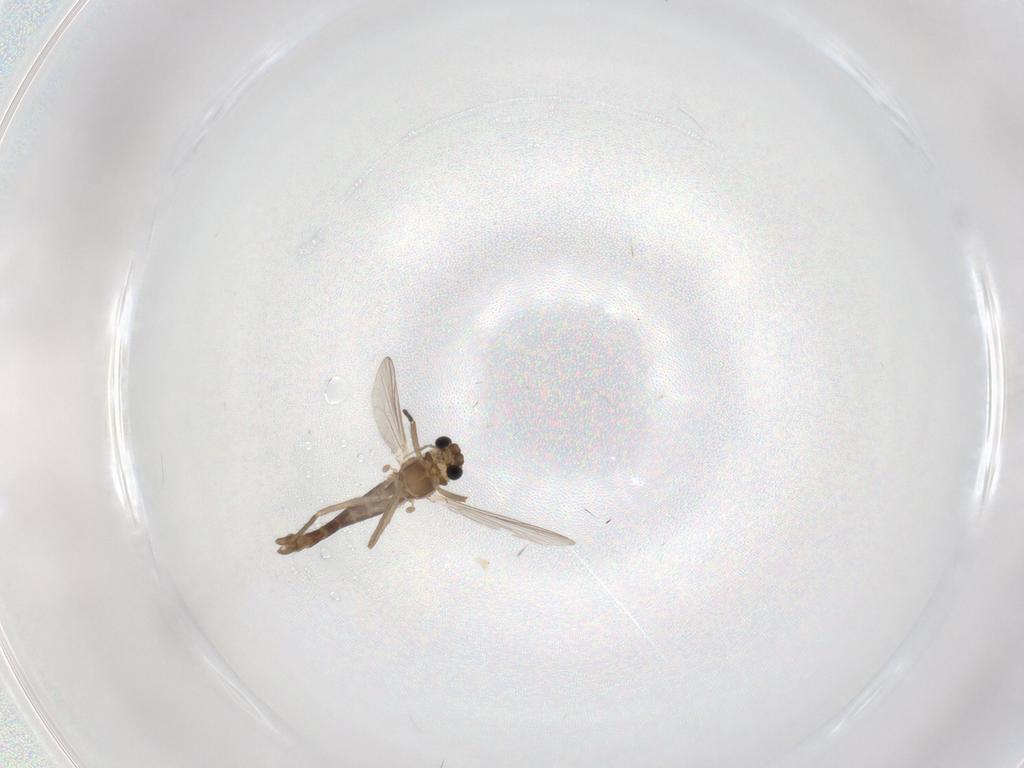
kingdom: Animalia
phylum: Arthropoda
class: Insecta
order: Diptera
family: Chironomidae
